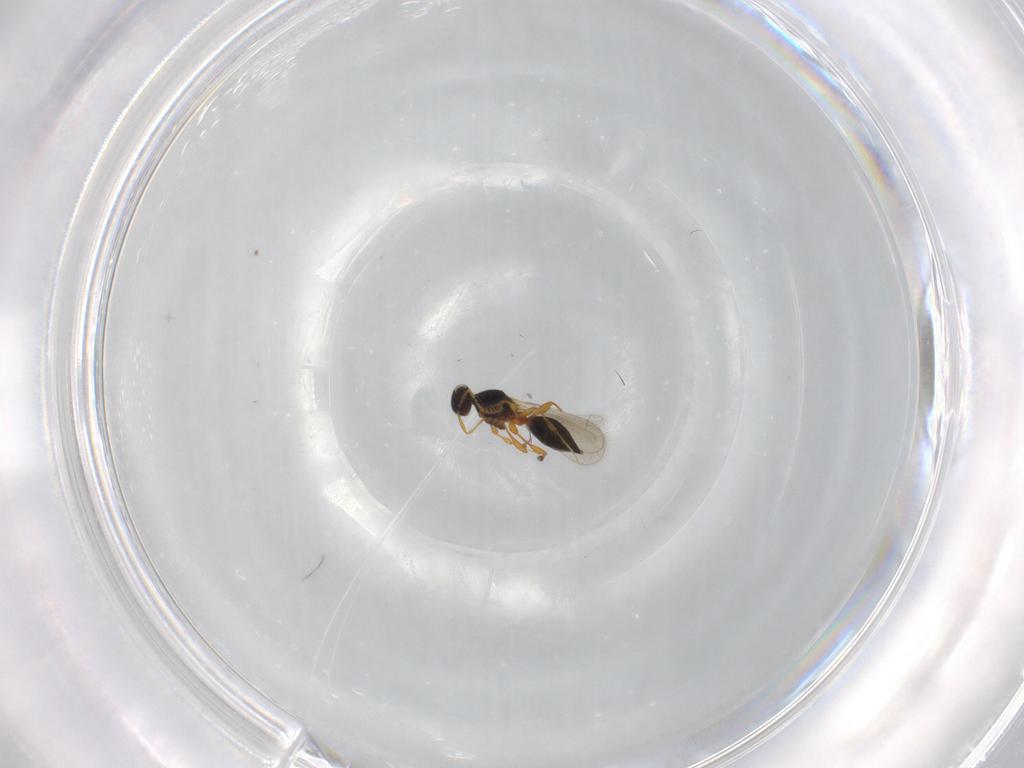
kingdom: Animalia
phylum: Arthropoda
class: Insecta
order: Hymenoptera
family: Platygastridae
